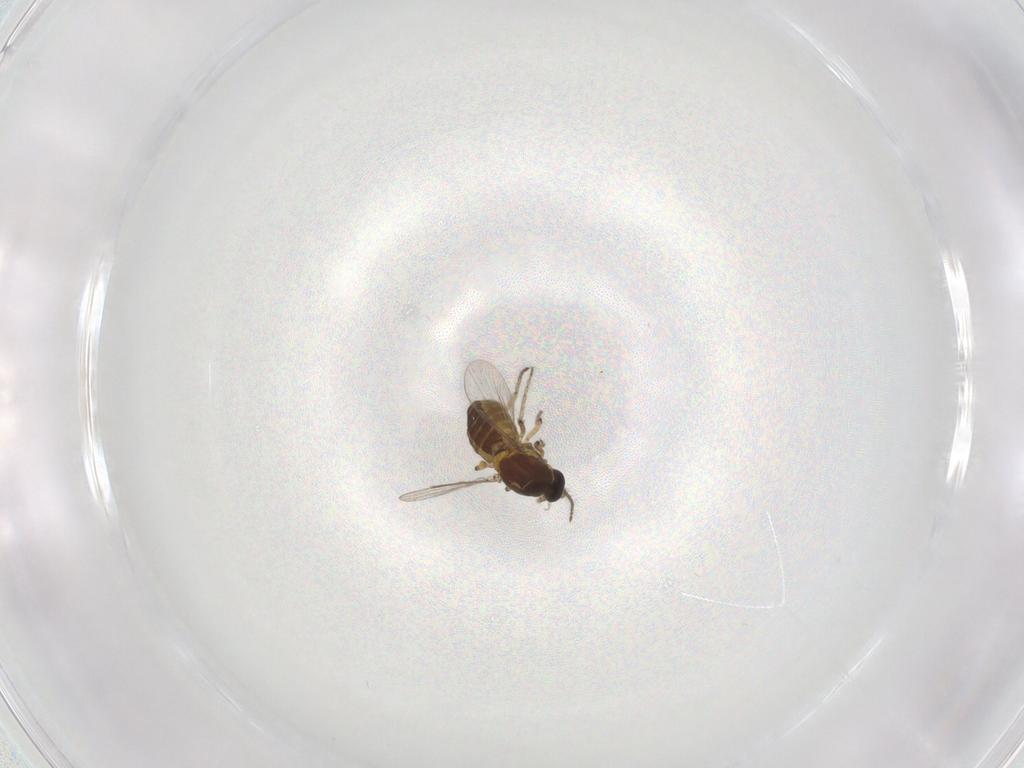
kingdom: Animalia
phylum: Arthropoda
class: Insecta
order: Diptera
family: Ceratopogonidae
